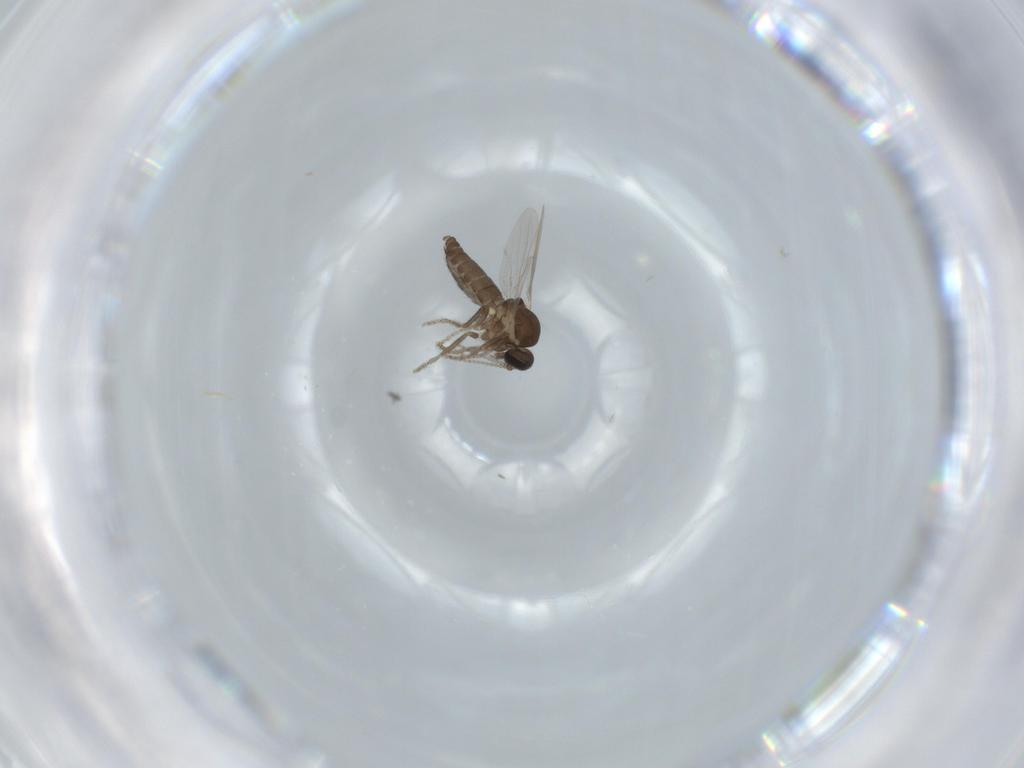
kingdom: Animalia
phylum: Arthropoda
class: Insecta
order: Diptera
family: Ceratopogonidae
